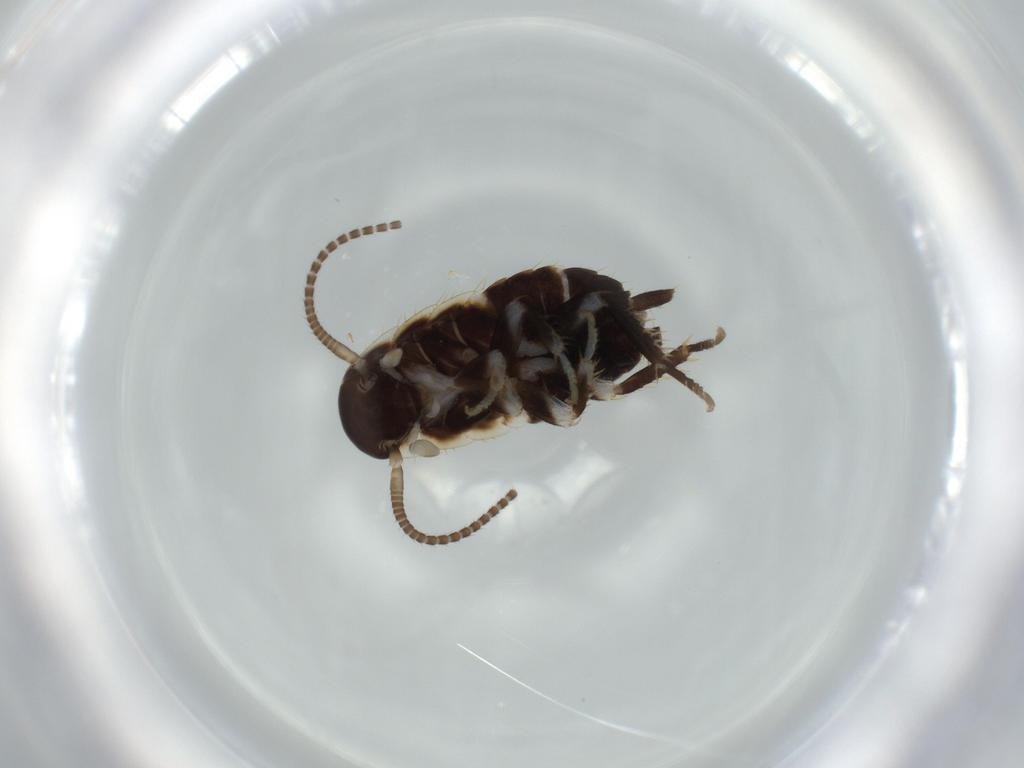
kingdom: Animalia
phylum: Arthropoda
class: Insecta
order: Blattodea
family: Ectobiidae
